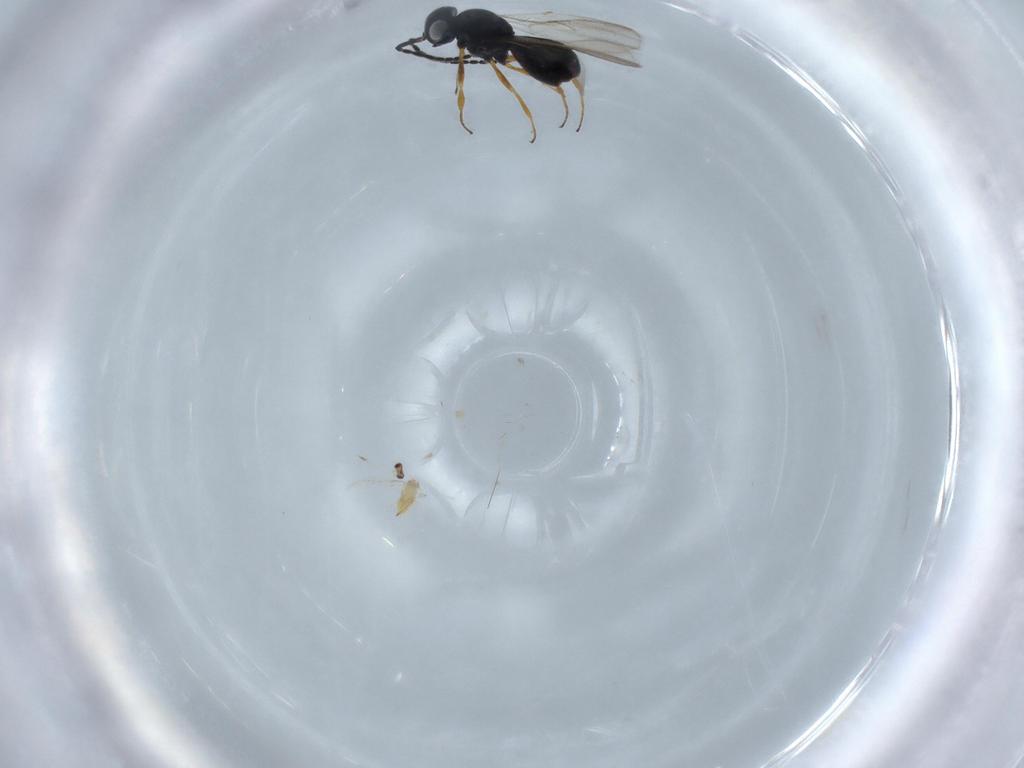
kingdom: Animalia
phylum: Arthropoda
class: Insecta
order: Hymenoptera
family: Scelionidae
